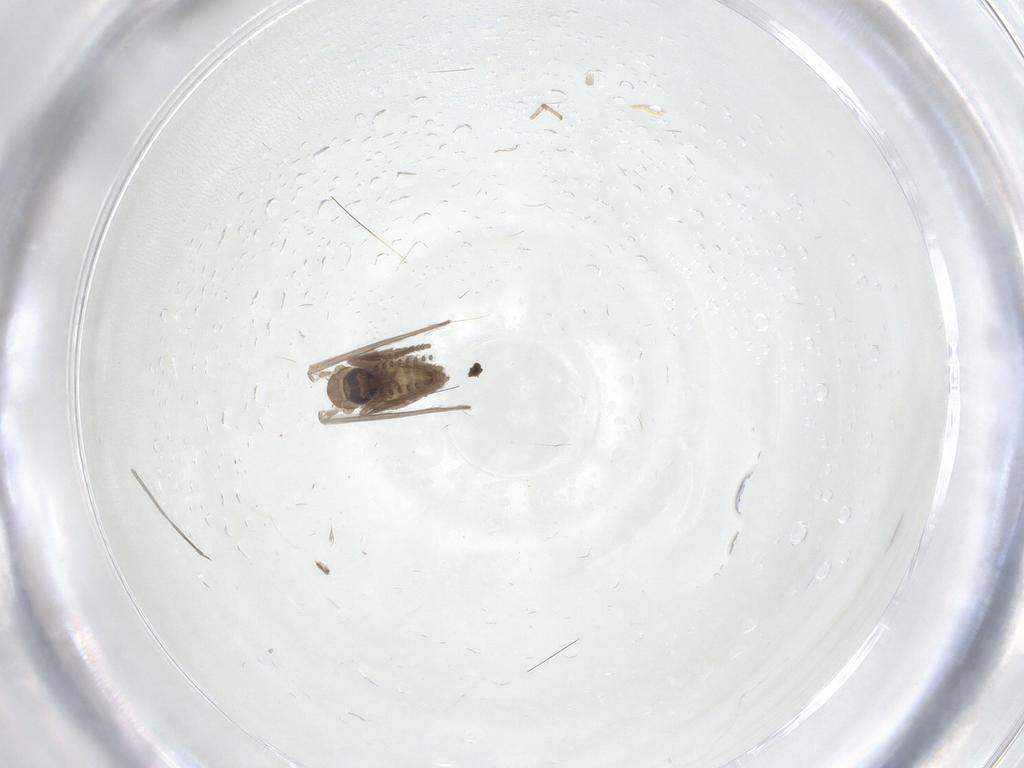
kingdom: Animalia
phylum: Arthropoda
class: Insecta
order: Diptera
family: Psychodidae
